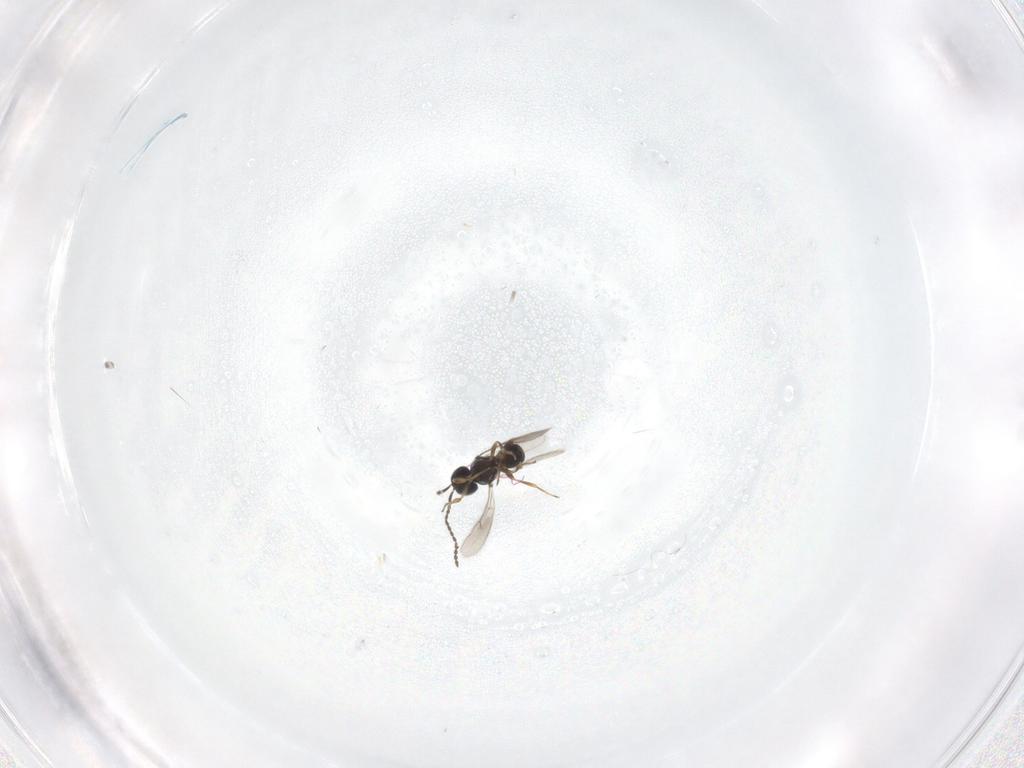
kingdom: Animalia
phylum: Arthropoda
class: Insecta
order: Hymenoptera
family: Scelionidae
